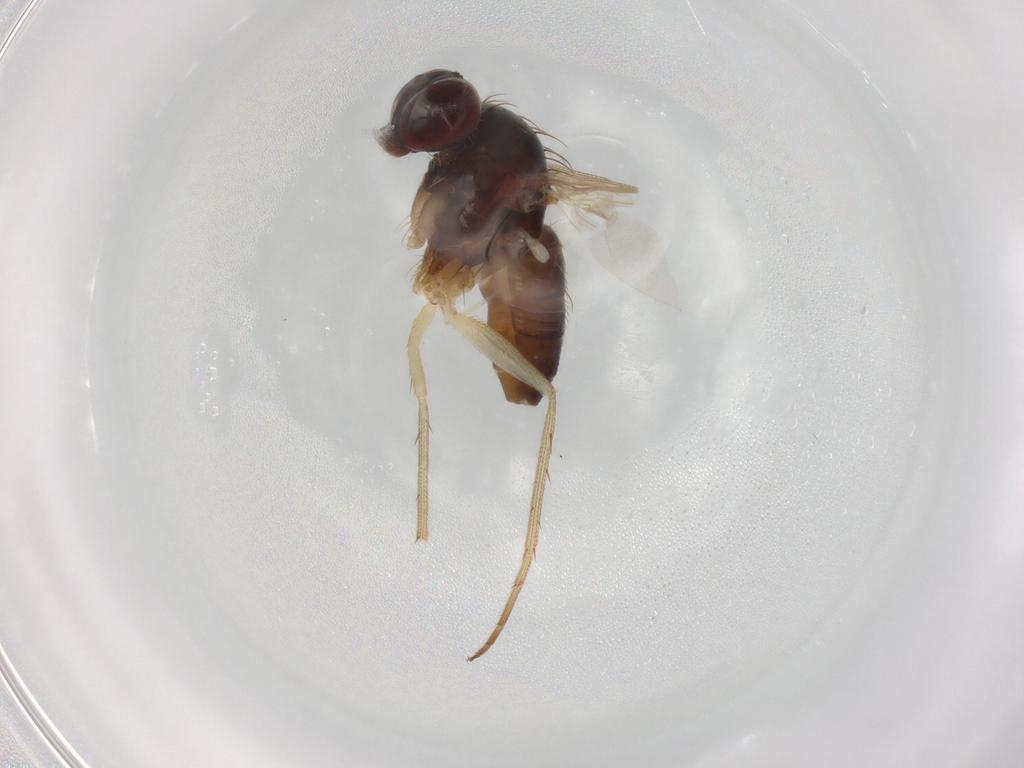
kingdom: Animalia
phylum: Arthropoda
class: Insecta
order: Diptera
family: Dolichopodidae
